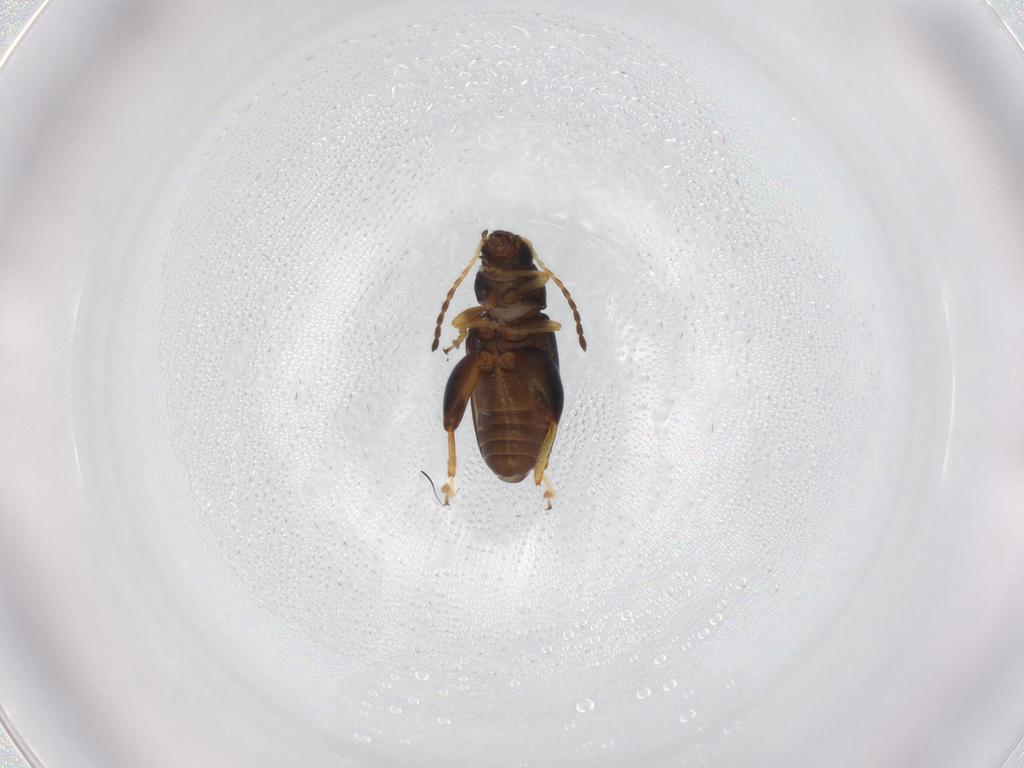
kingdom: Animalia
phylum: Arthropoda
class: Insecta
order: Coleoptera
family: Chrysomelidae
